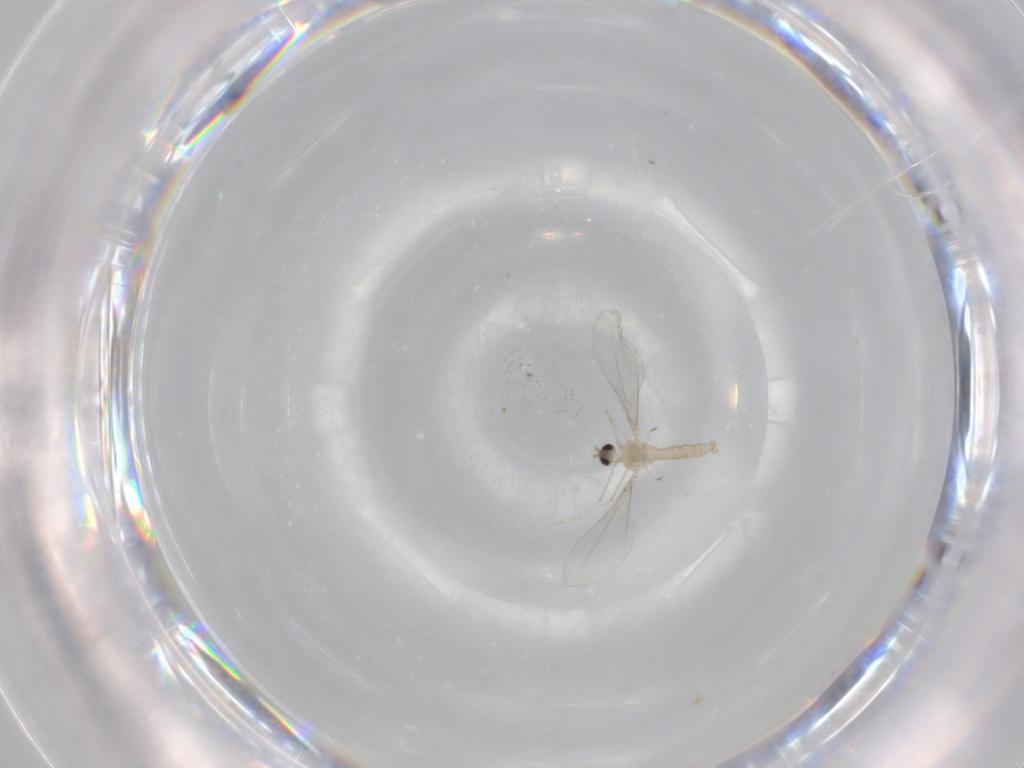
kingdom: Animalia
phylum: Arthropoda
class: Insecta
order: Diptera
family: Cecidomyiidae
